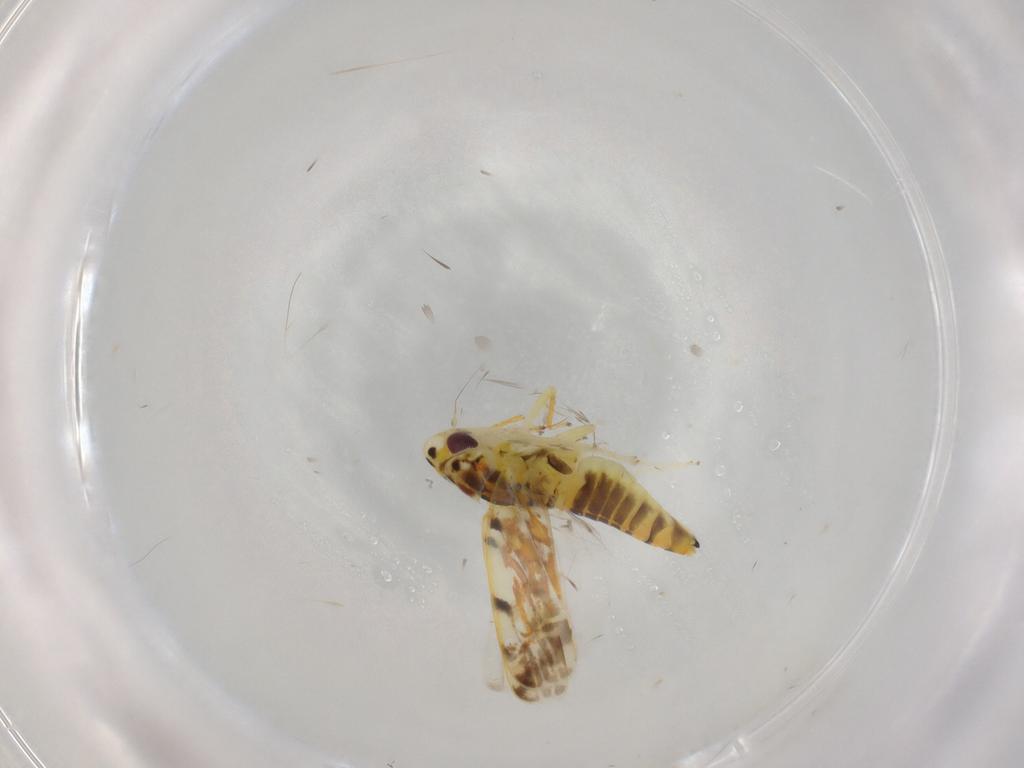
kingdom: Animalia
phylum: Arthropoda
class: Insecta
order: Hemiptera
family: Cicadellidae
